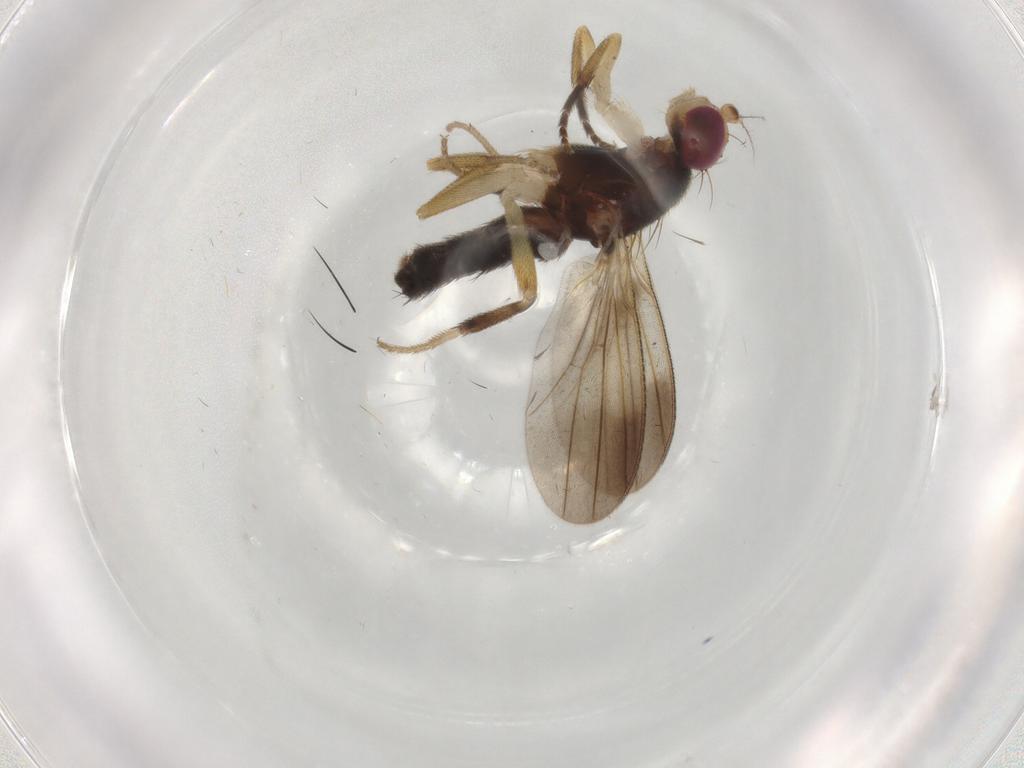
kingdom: Animalia
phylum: Arthropoda
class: Insecta
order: Diptera
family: Clusiidae
